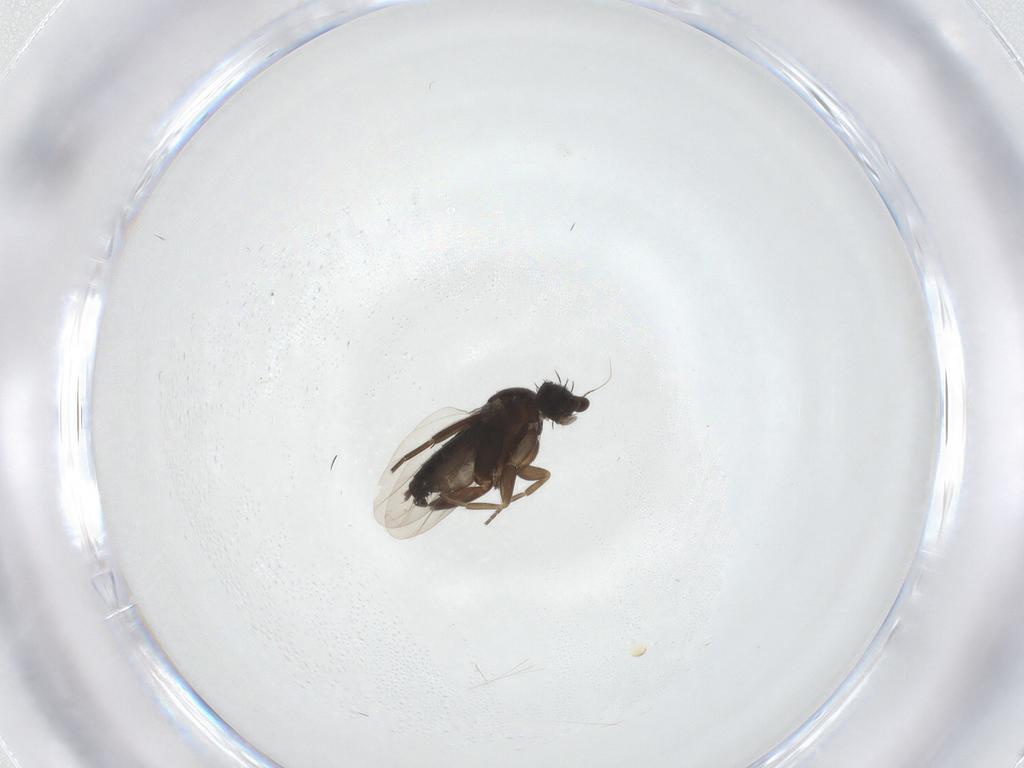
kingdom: Animalia
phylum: Arthropoda
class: Insecta
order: Diptera
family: Limoniidae
